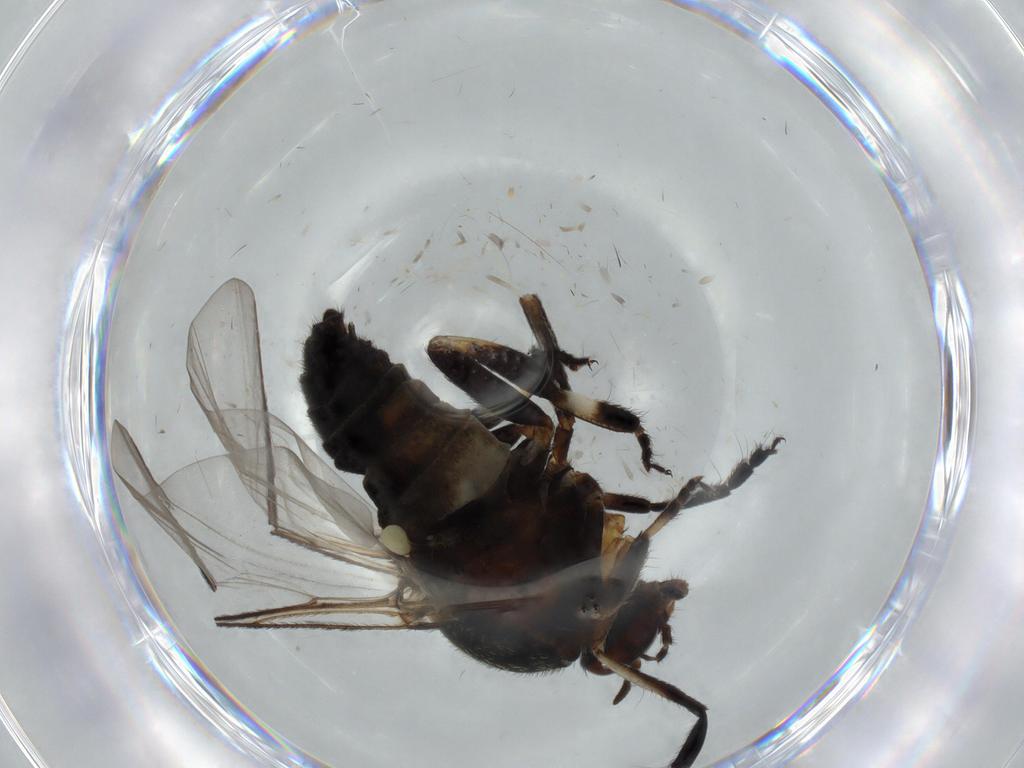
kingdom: Animalia
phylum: Arthropoda
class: Insecta
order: Diptera
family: Sciaridae
